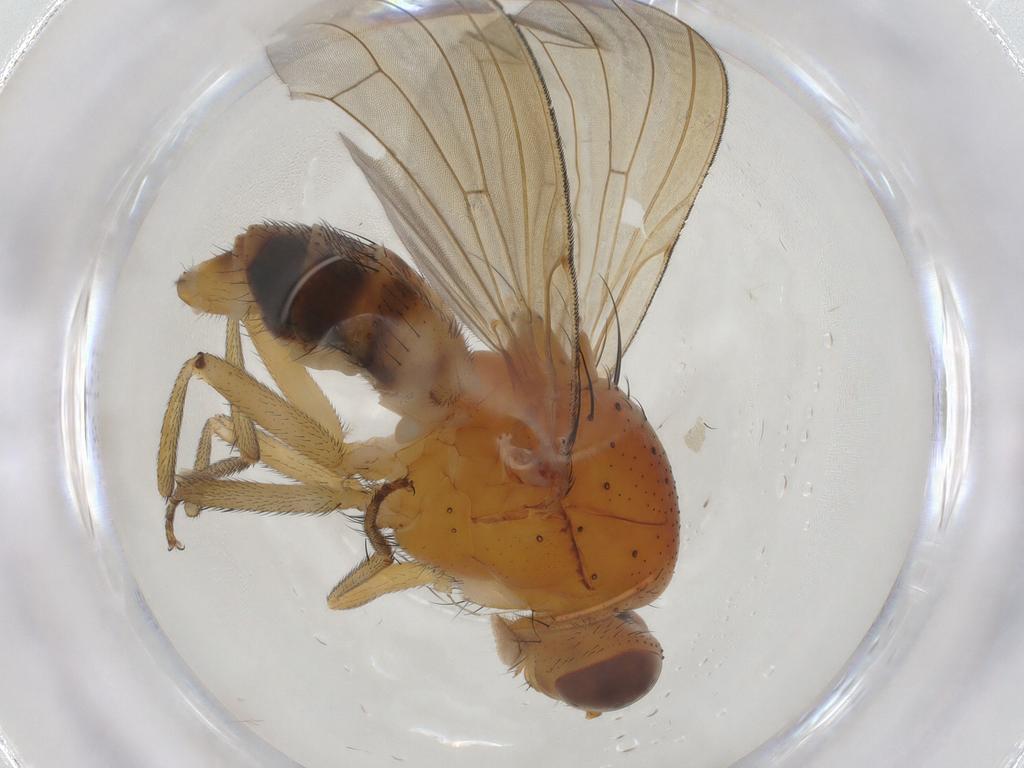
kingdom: Animalia
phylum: Arthropoda
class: Insecta
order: Diptera
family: Chironomidae
